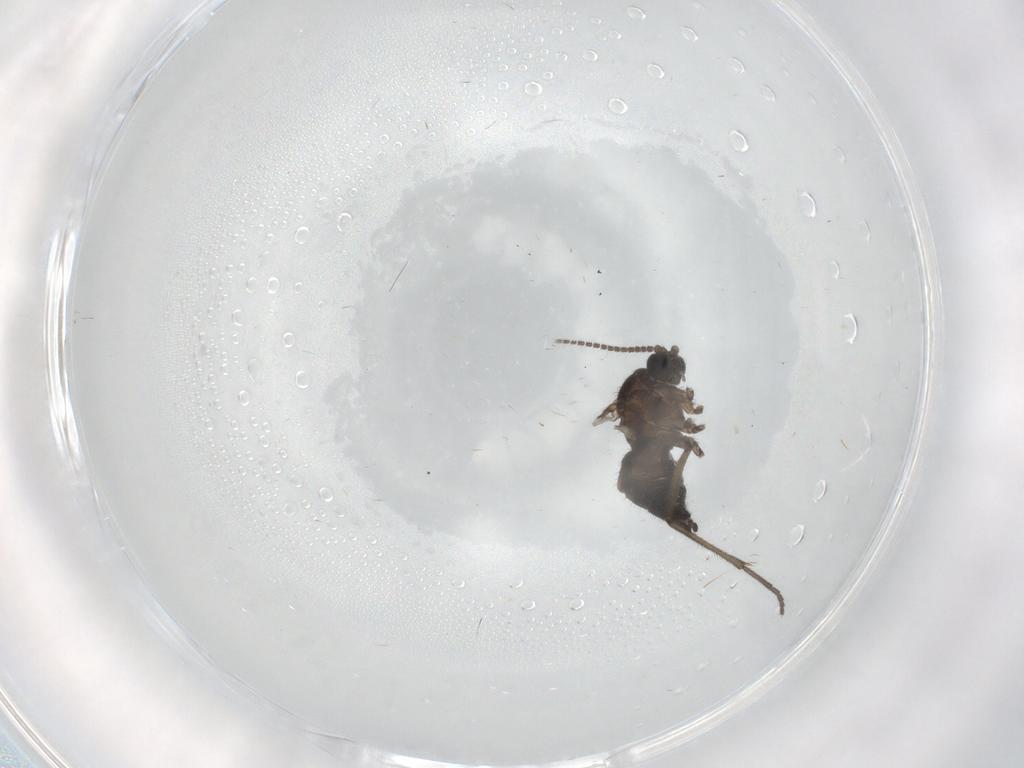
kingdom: Animalia
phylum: Arthropoda
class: Insecta
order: Diptera
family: Sciaridae
